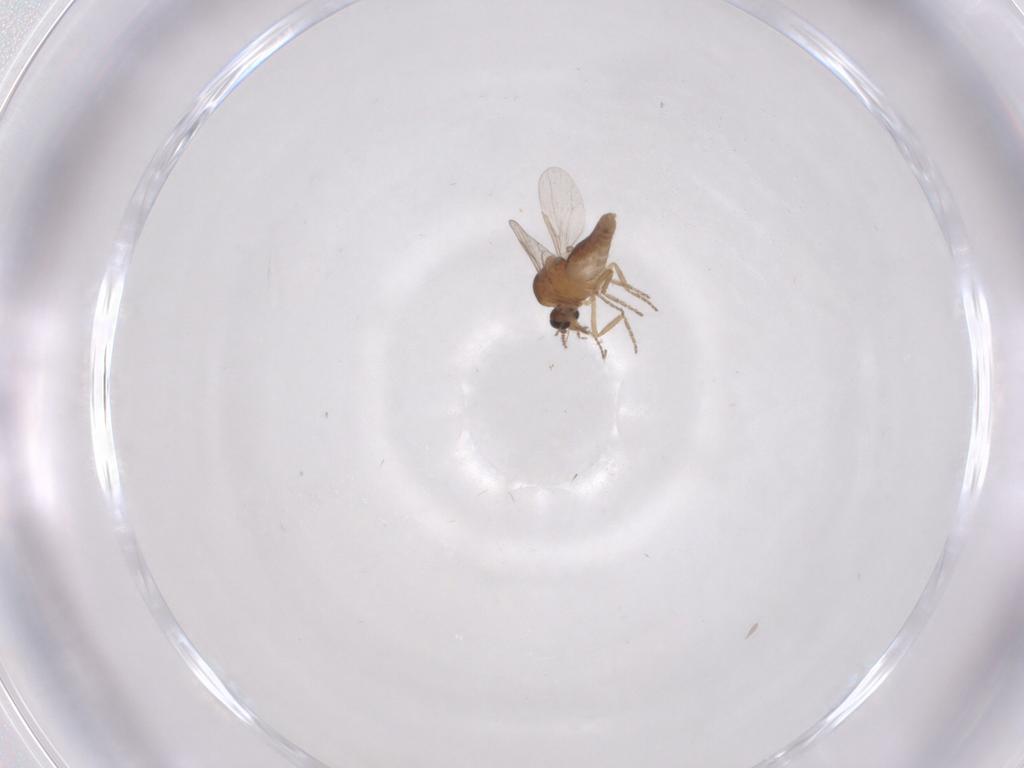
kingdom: Animalia
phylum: Arthropoda
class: Insecta
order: Diptera
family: Ceratopogonidae
